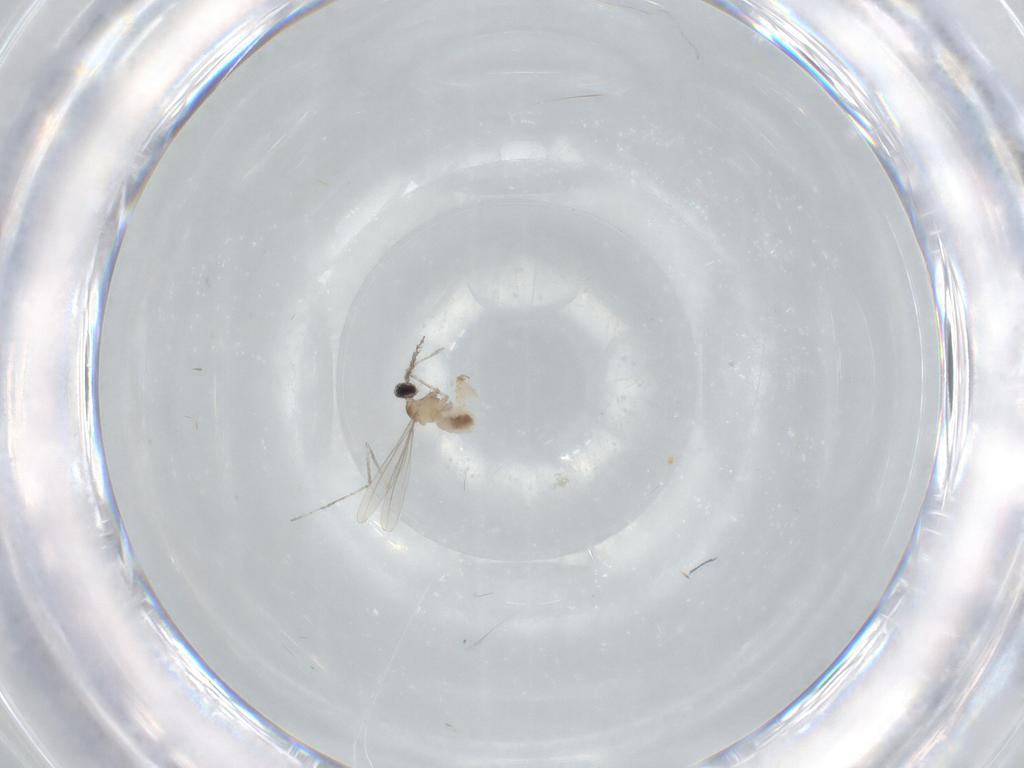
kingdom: Animalia
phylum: Arthropoda
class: Insecta
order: Diptera
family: Cecidomyiidae
